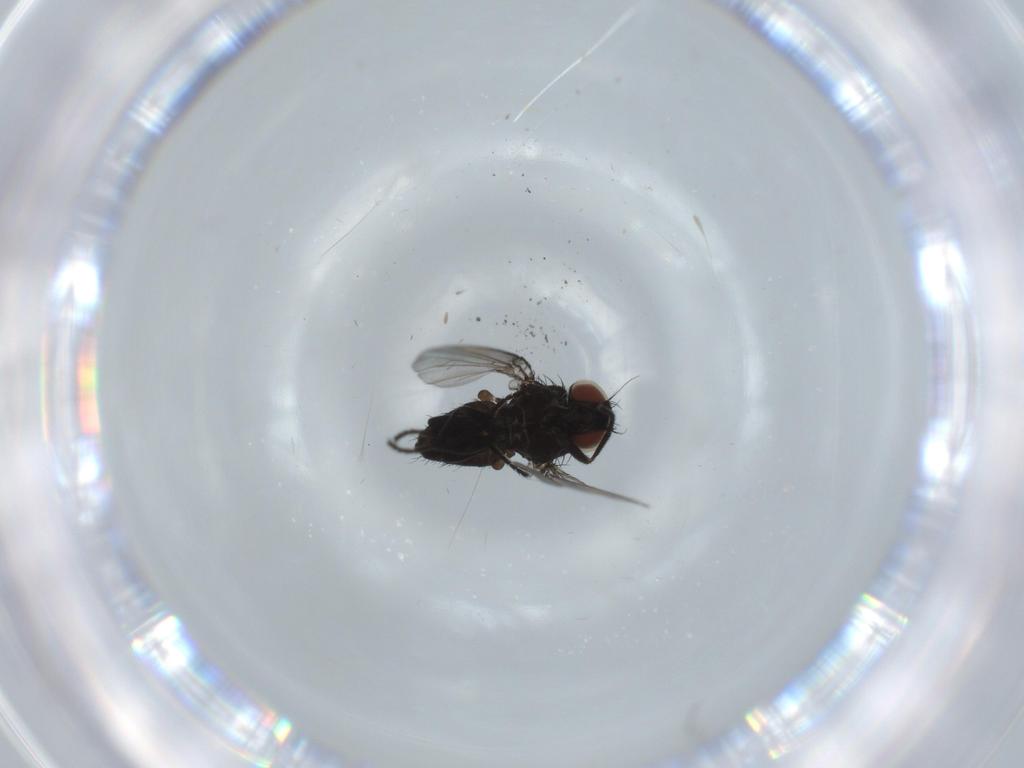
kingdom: Animalia
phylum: Arthropoda
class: Insecta
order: Diptera
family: Milichiidae
